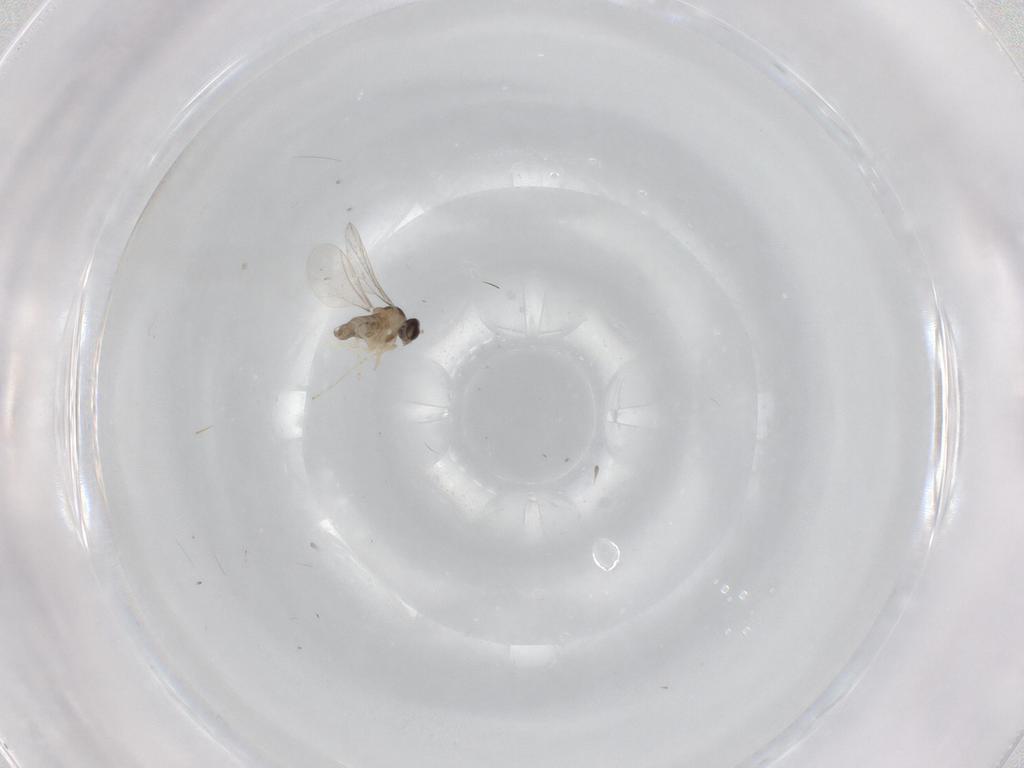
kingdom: Animalia
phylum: Arthropoda
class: Insecta
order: Diptera
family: Cecidomyiidae
